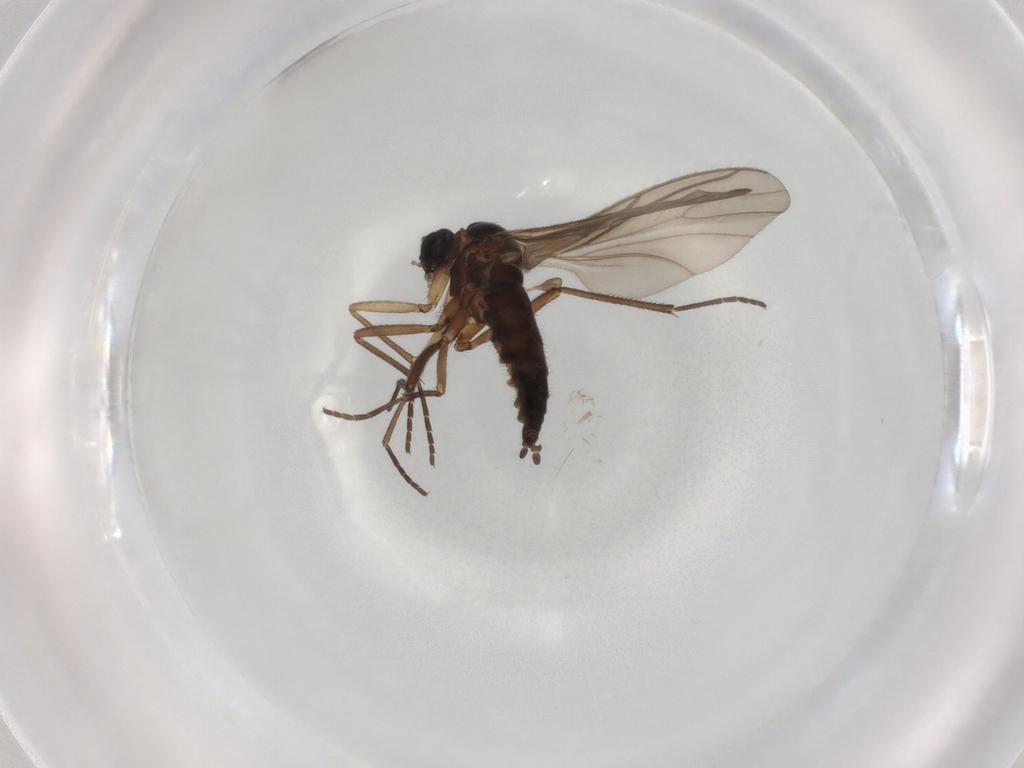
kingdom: Animalia
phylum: Arthropoda
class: Insecta
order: Diptera
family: Sciaridae
